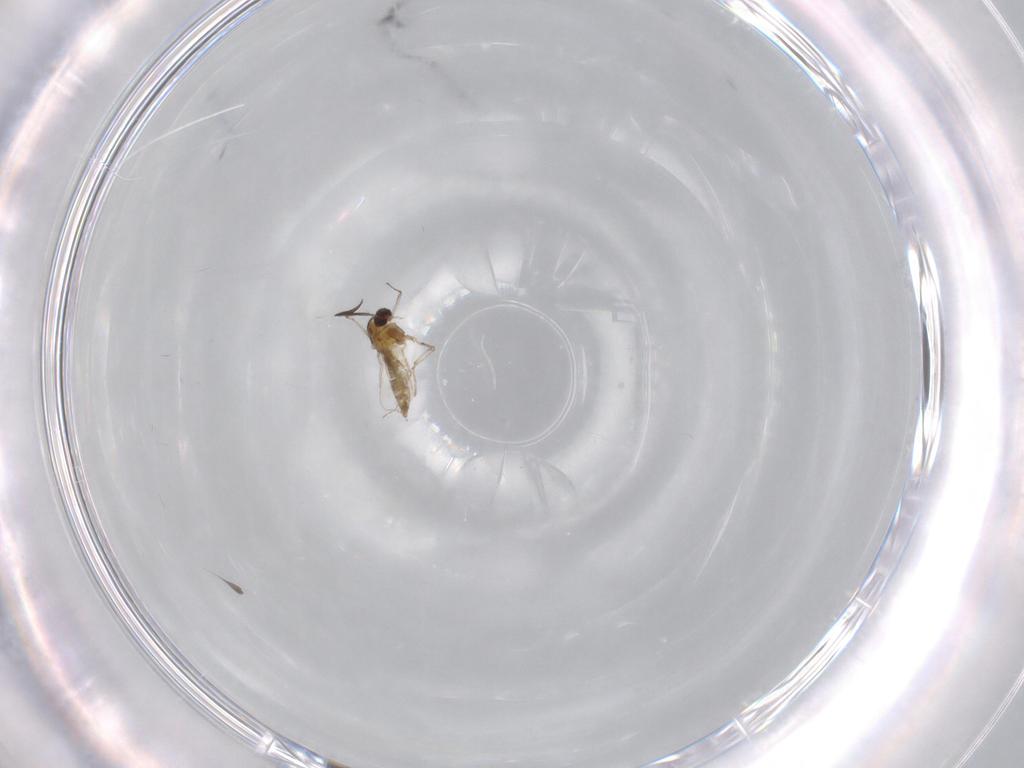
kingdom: Animalia
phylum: Arthropoda
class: Insecta
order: Diptera
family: Chironomidae
